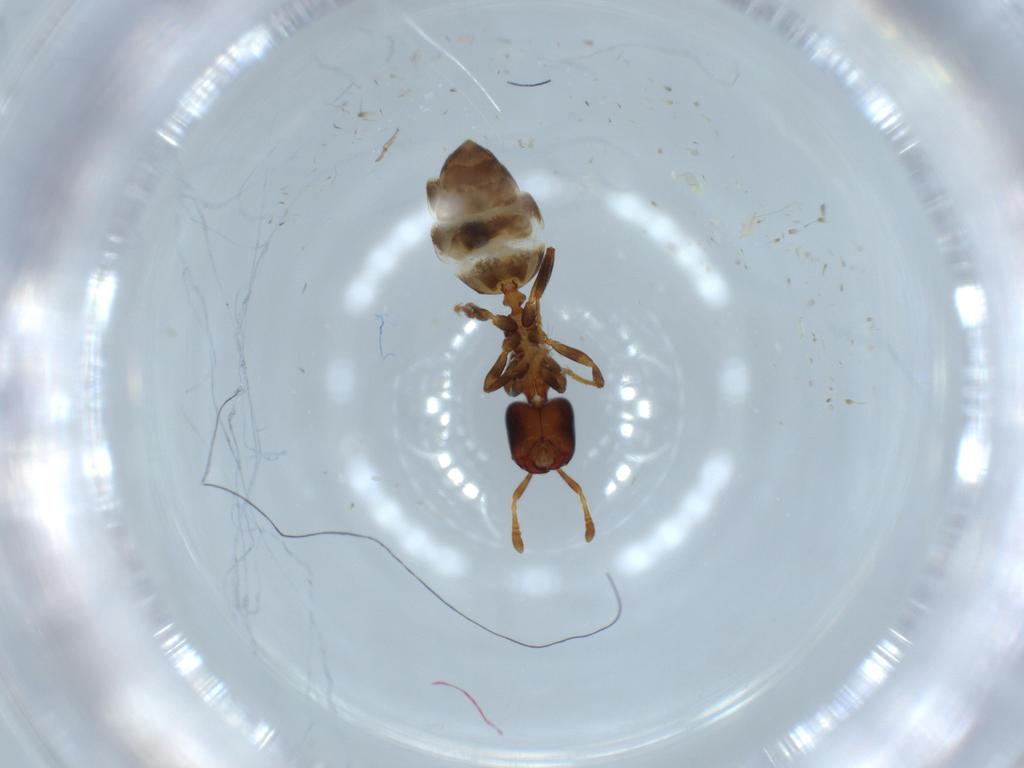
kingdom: Animalia
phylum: Arthropoda
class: Insecta
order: Hymenoptera
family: Formicidae
